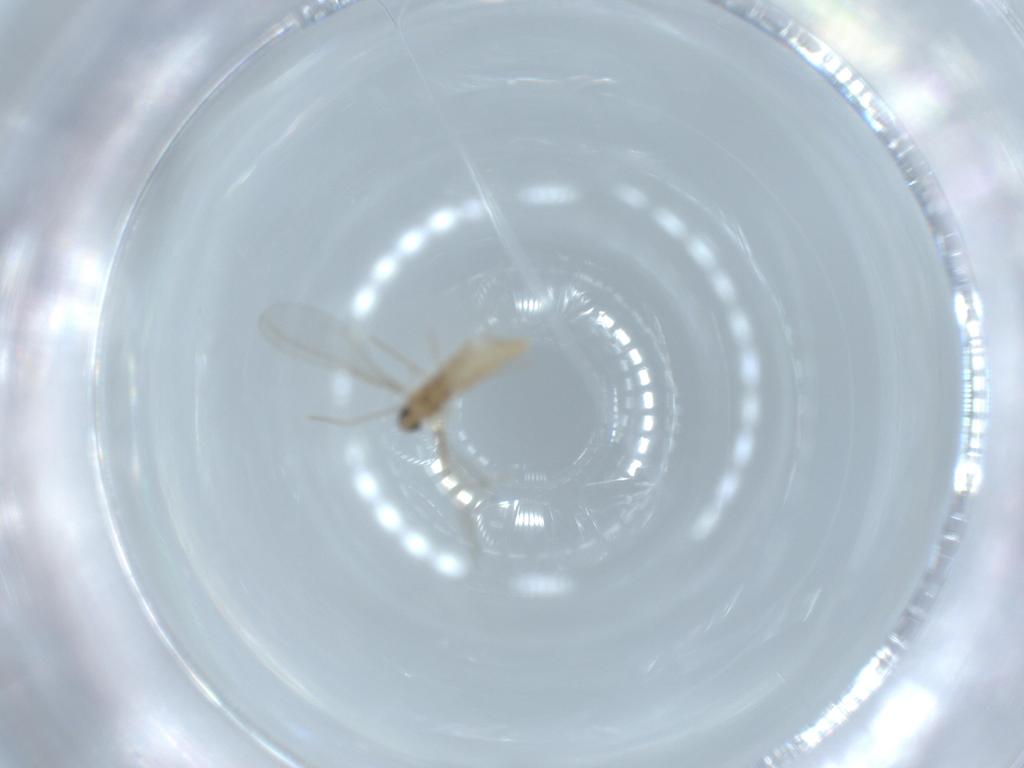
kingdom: Animalia
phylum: Arthropoda
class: Insecta
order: Diptera
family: Cecidomyiidae
